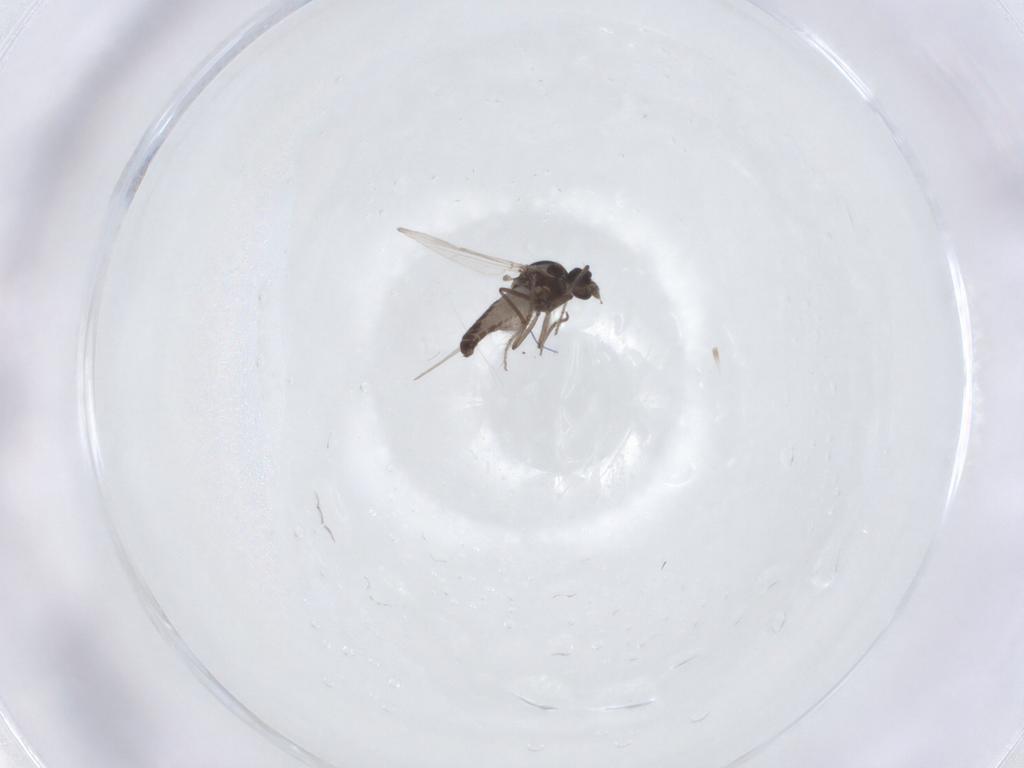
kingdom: Animalia
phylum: Arthropoda
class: Insecta
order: Diptera
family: Ceratopogonidae
